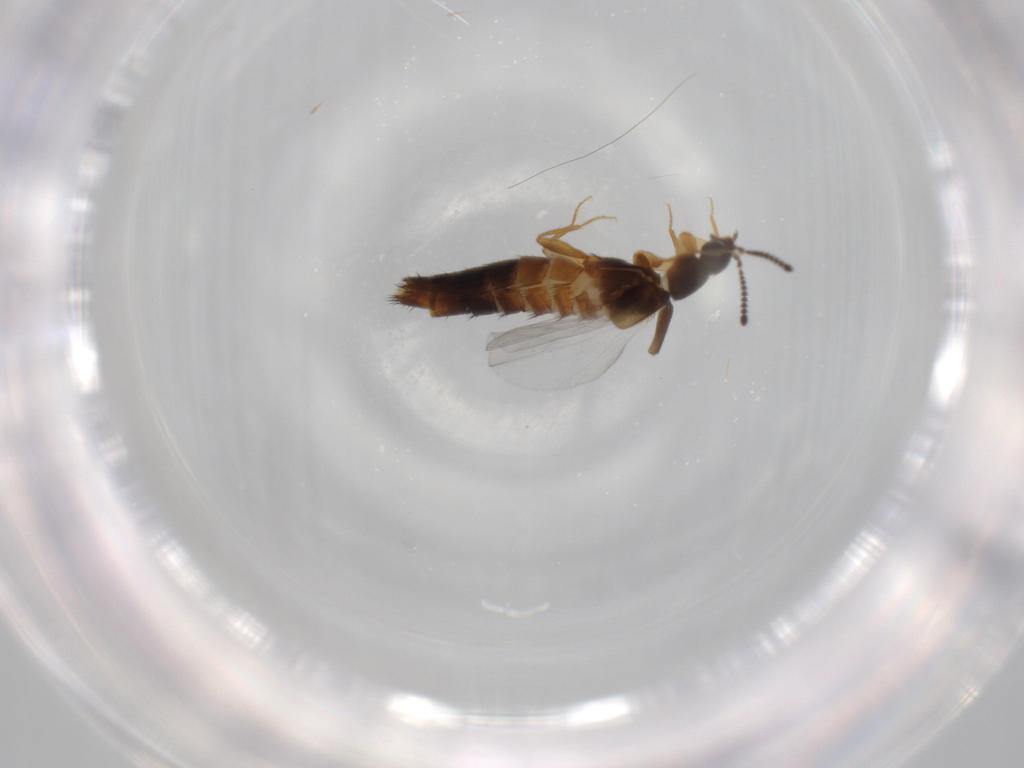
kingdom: Animalia
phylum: Arthropoda
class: Insecta
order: Coleoptera
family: Staphylinidae
